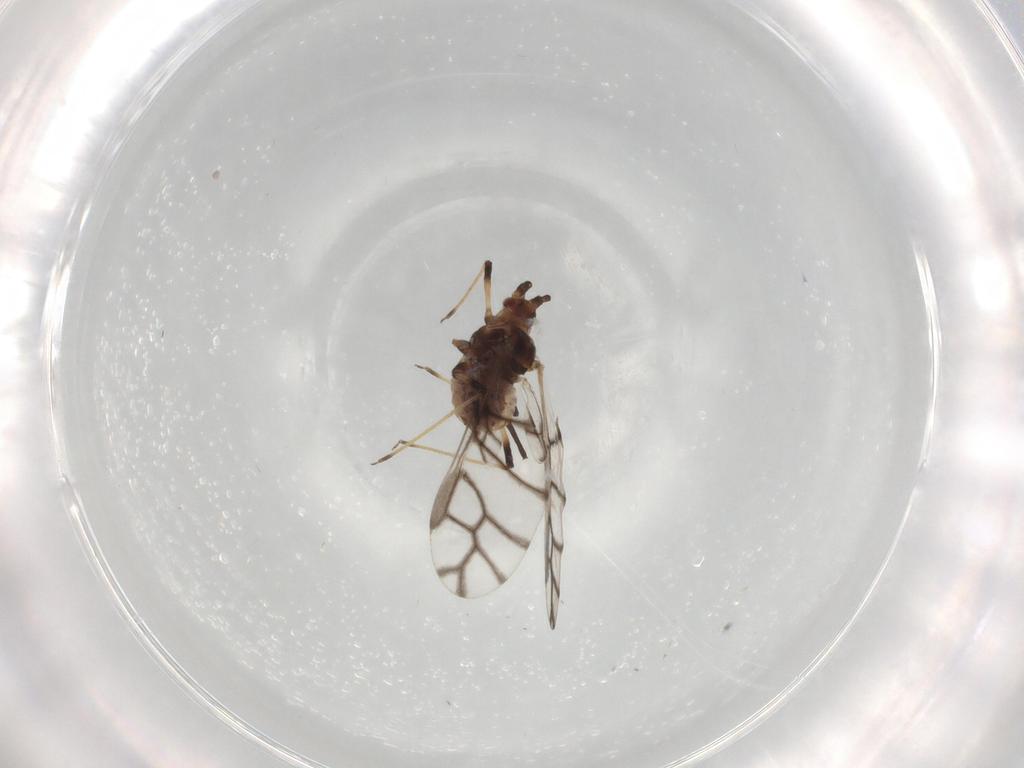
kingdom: Animalia
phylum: Arthropoda
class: Insecta
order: Hemiptera
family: Aphididae
